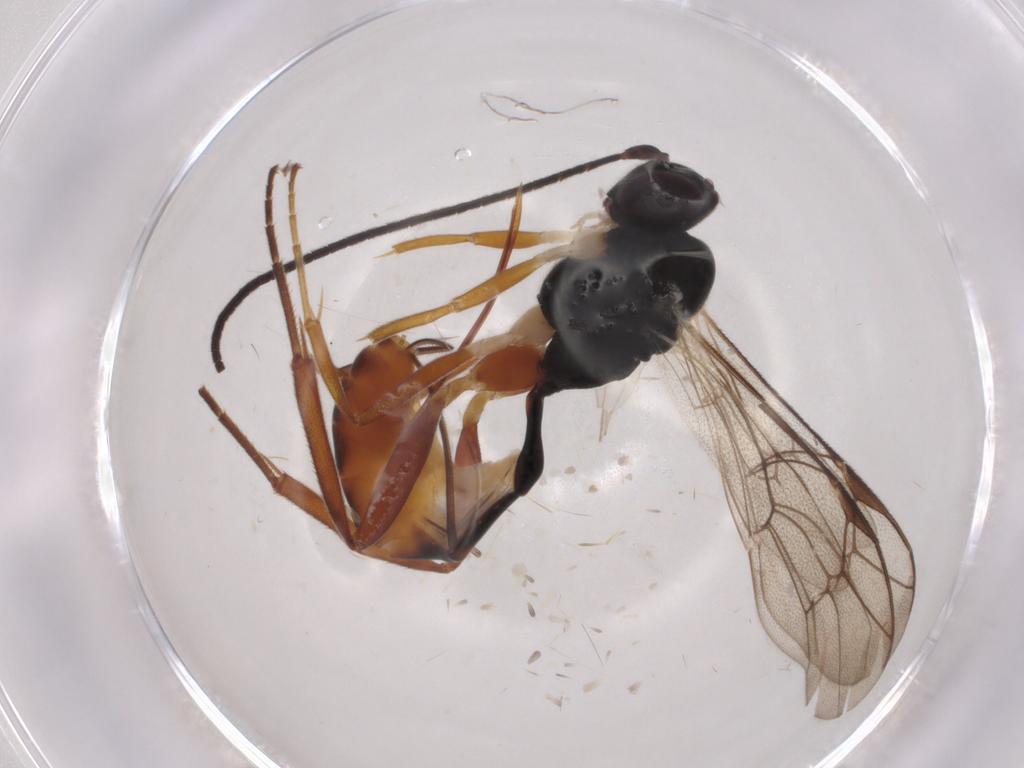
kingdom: Animalia
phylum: Arthropoda
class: Insecta
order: Hymenoptera
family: Ichneumonidae
